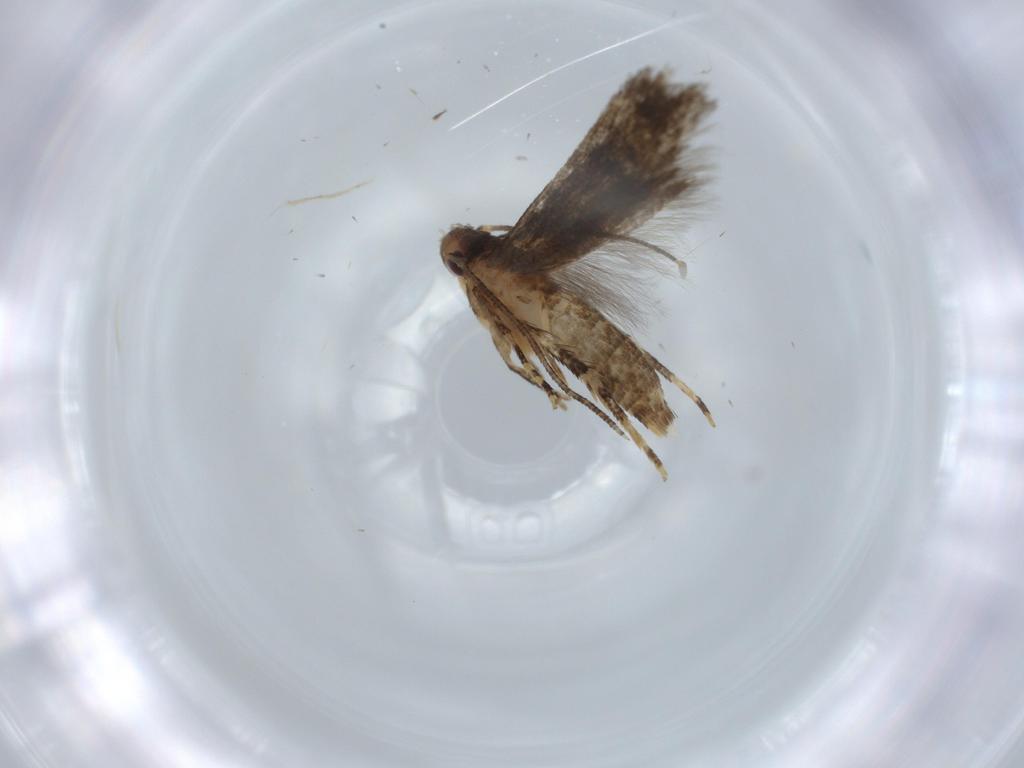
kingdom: Animalia
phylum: Arthropoda
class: Insecta
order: Lepidoptera
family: Momphidae
